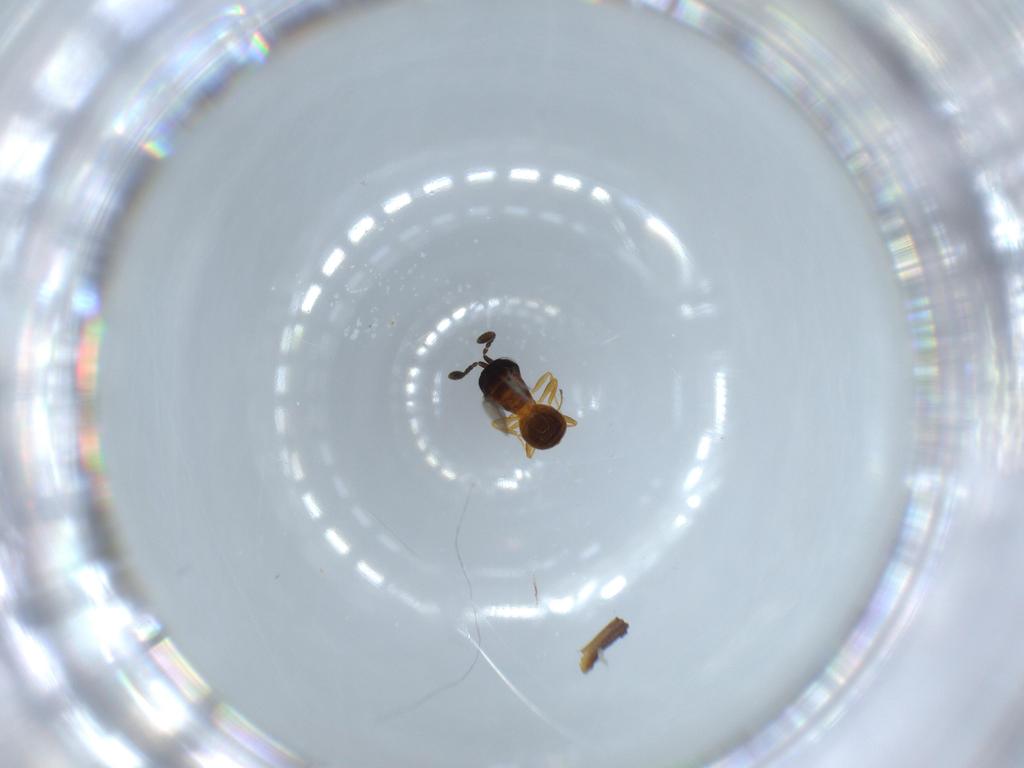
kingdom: Animalia
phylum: Arthropoda
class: Insecta
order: Hymenoptera
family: Scelionidae
